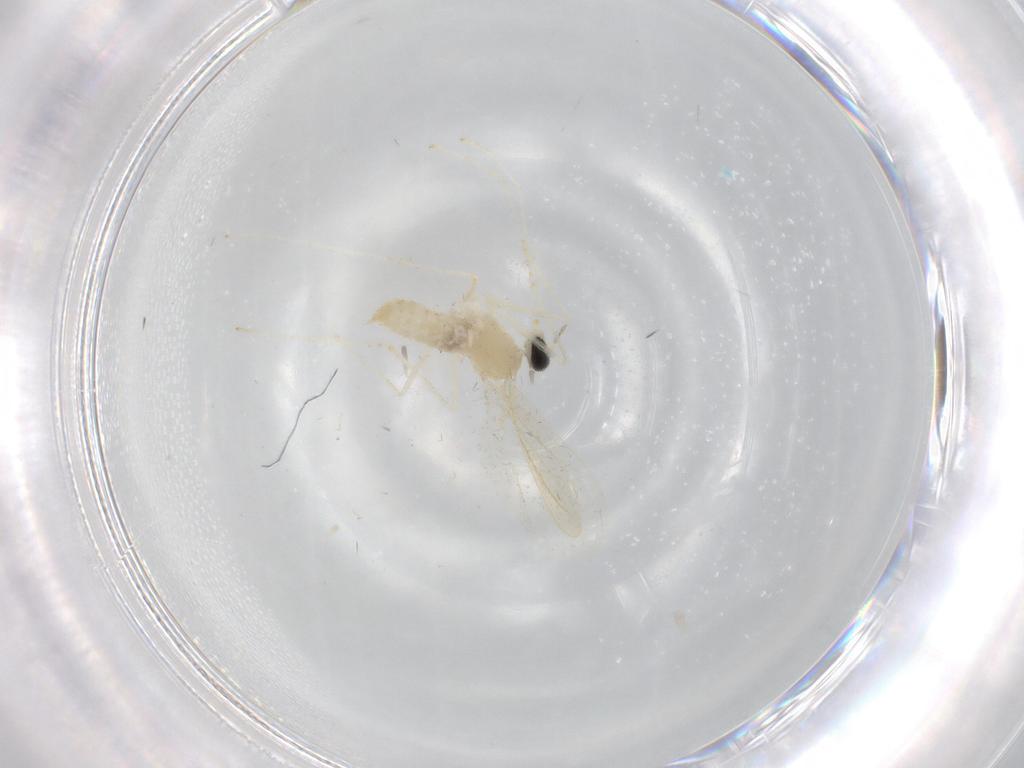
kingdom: Animalia
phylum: Arthropoda
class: Insecta
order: Diptera
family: Cecidomyiidae
